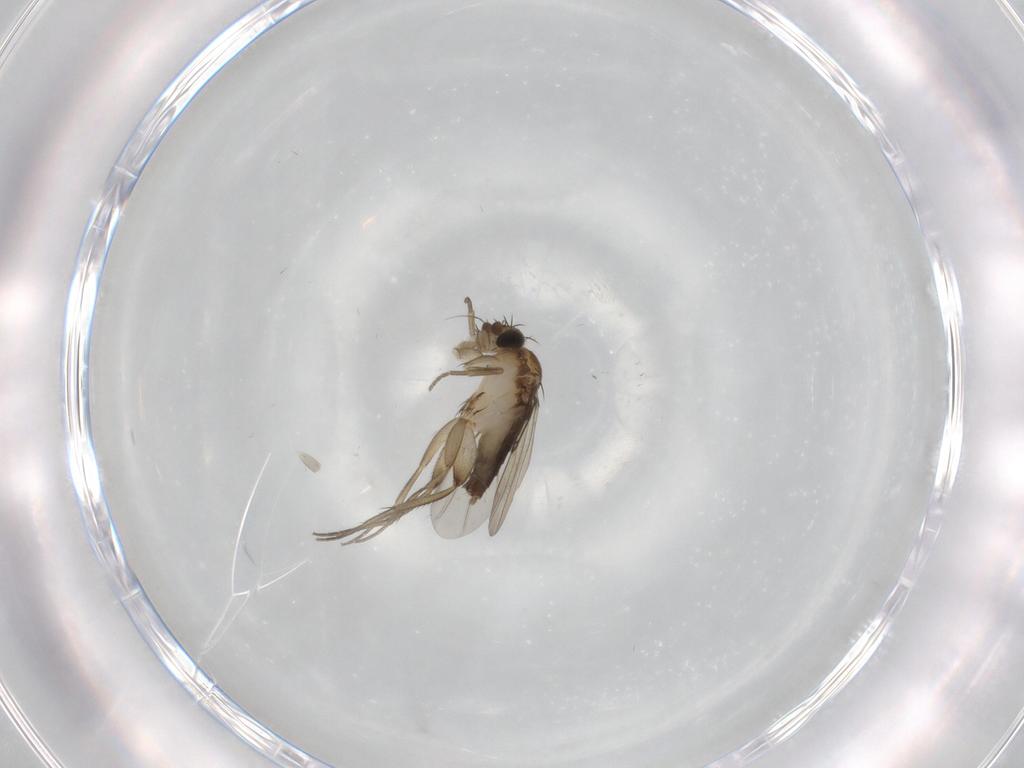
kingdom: Animalia
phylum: Arthropoda
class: Insecta
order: Diptera
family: Phoridae
